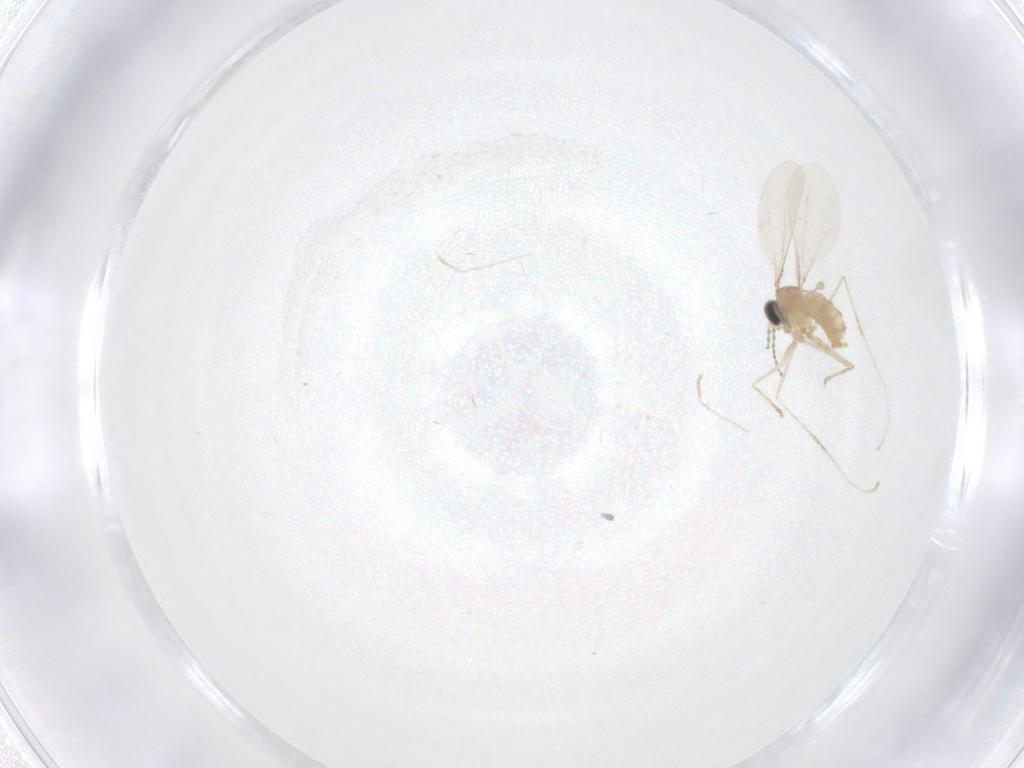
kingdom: Animalia
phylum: Arthropoda
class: Insecta
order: Diptera
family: Cecidomyiidae
